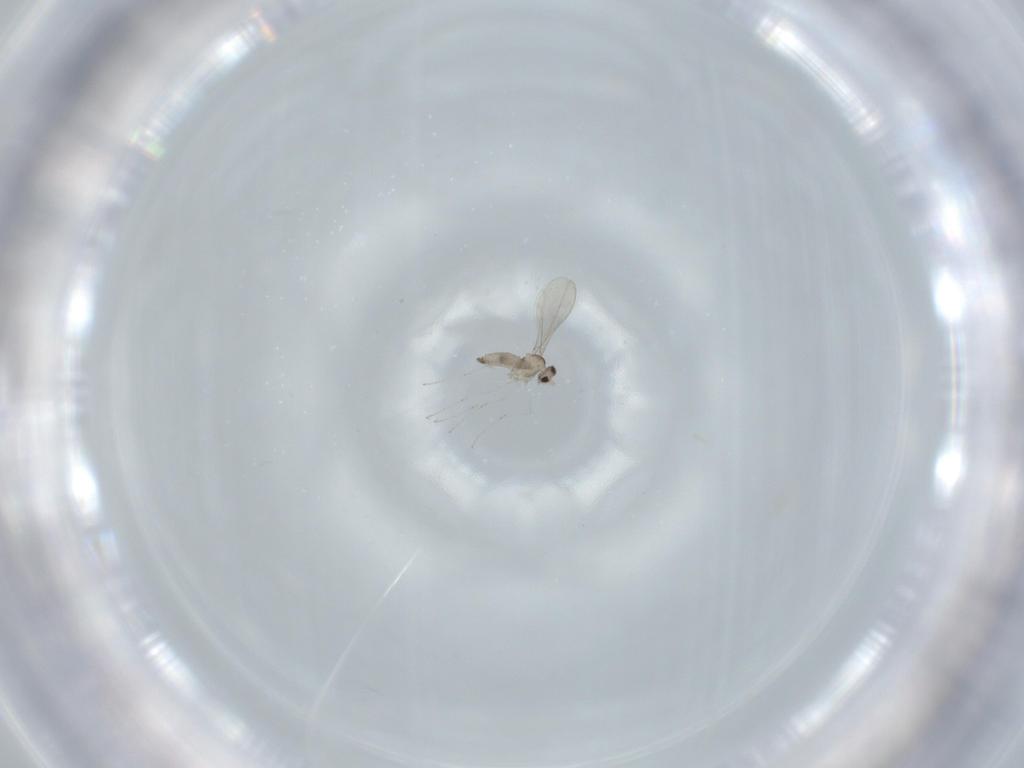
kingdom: Animalia
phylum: Arthropoda
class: Insecta
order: Diptera
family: Cecidomyiidae
